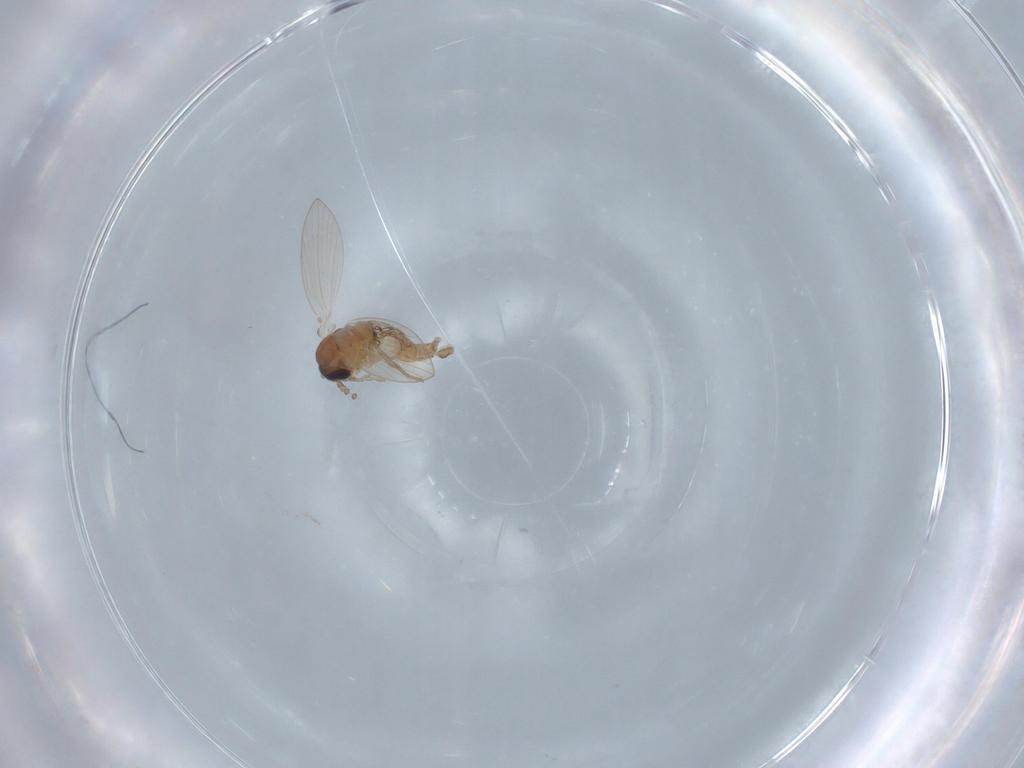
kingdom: Animalia
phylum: Arthropoda
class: Insecta
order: Diptera
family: Psychodidae
